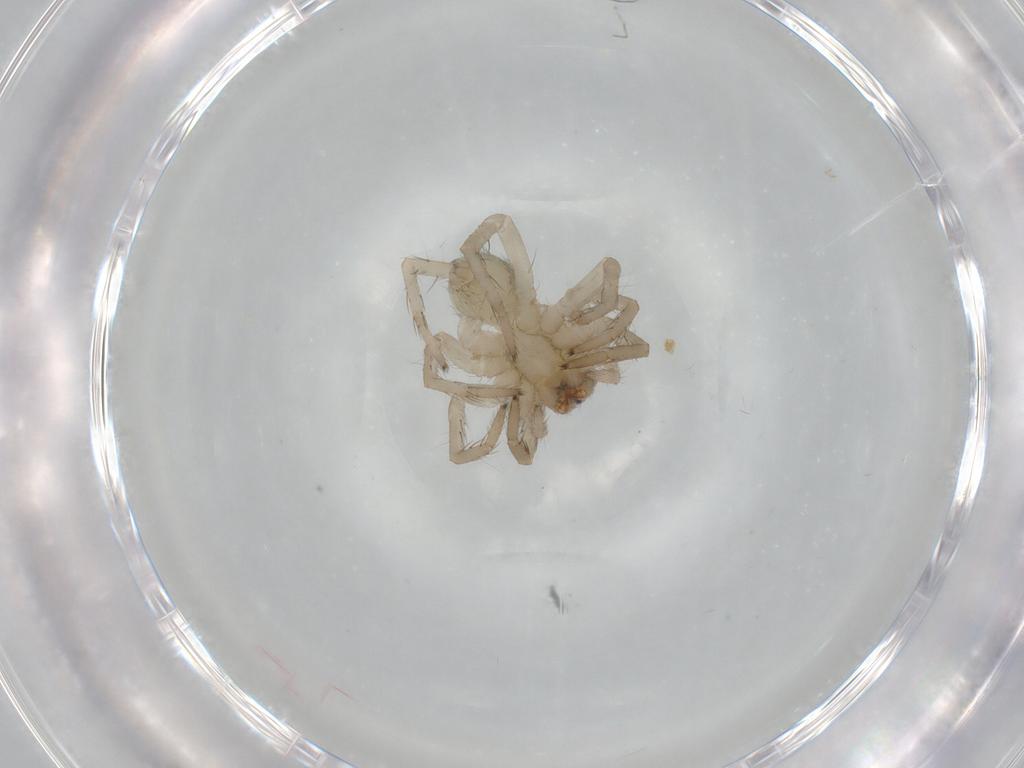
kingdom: Animalia
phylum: Arthropoda
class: Arachnida
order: Araneae
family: Lycosidae
